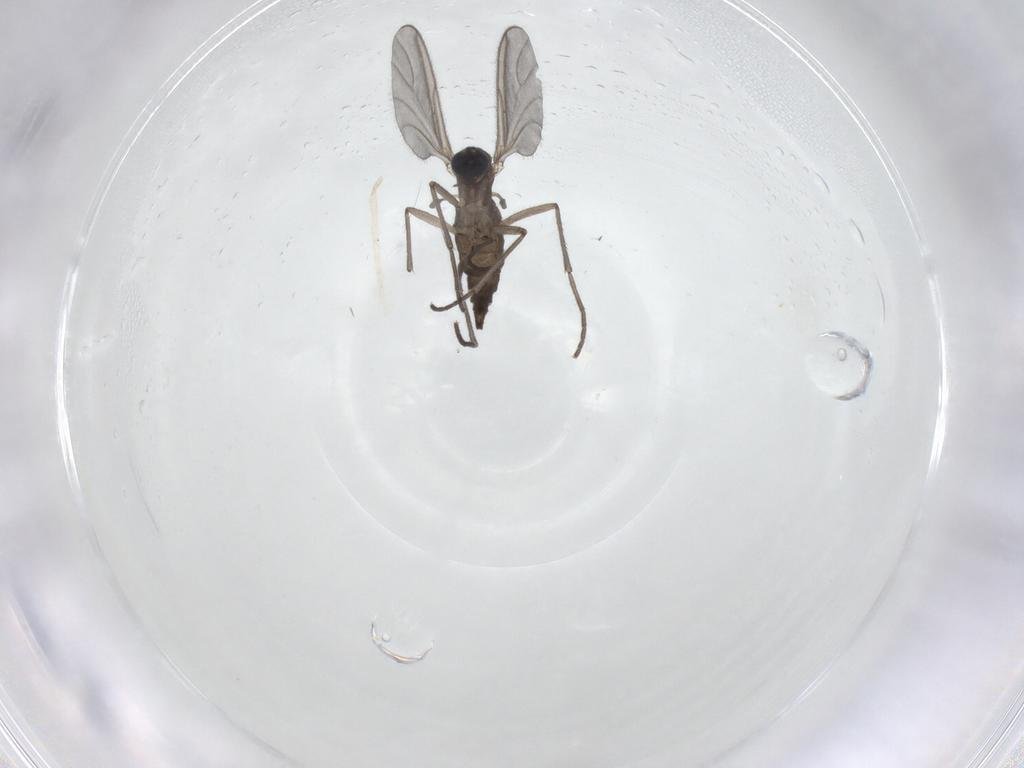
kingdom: Animalia
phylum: Arthropoda
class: Insecta
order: Diptera
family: Sciaridae
